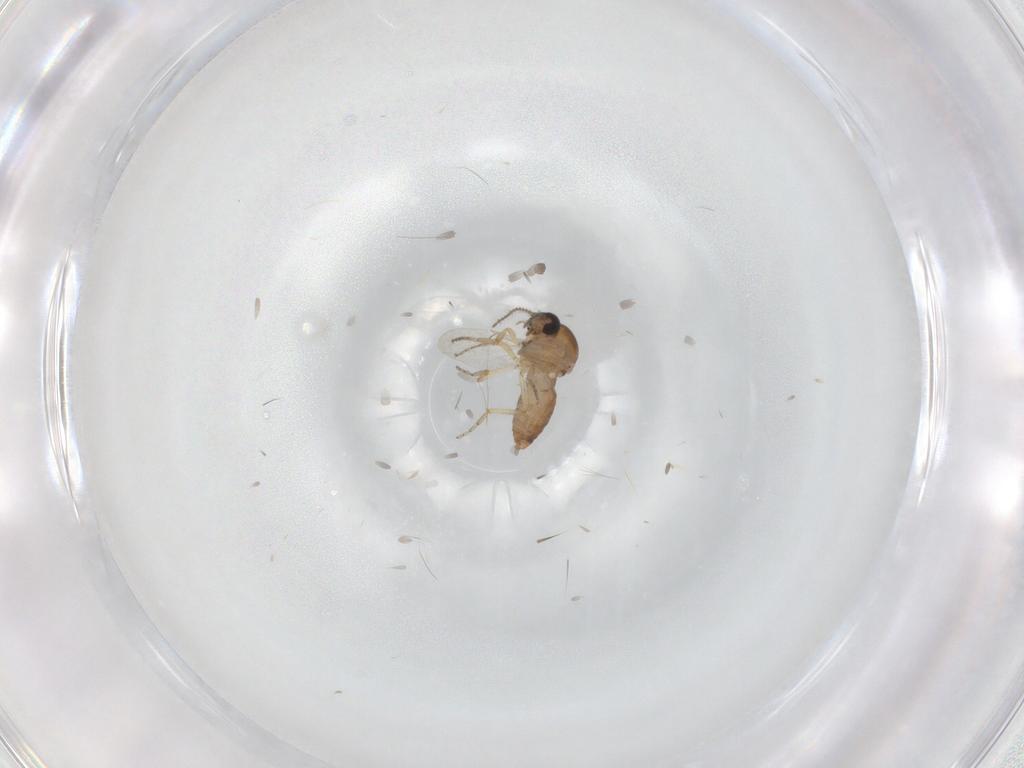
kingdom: Animalia
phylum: Arthropoda
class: Insecta
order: Diptera
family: Ceratopogonidae
